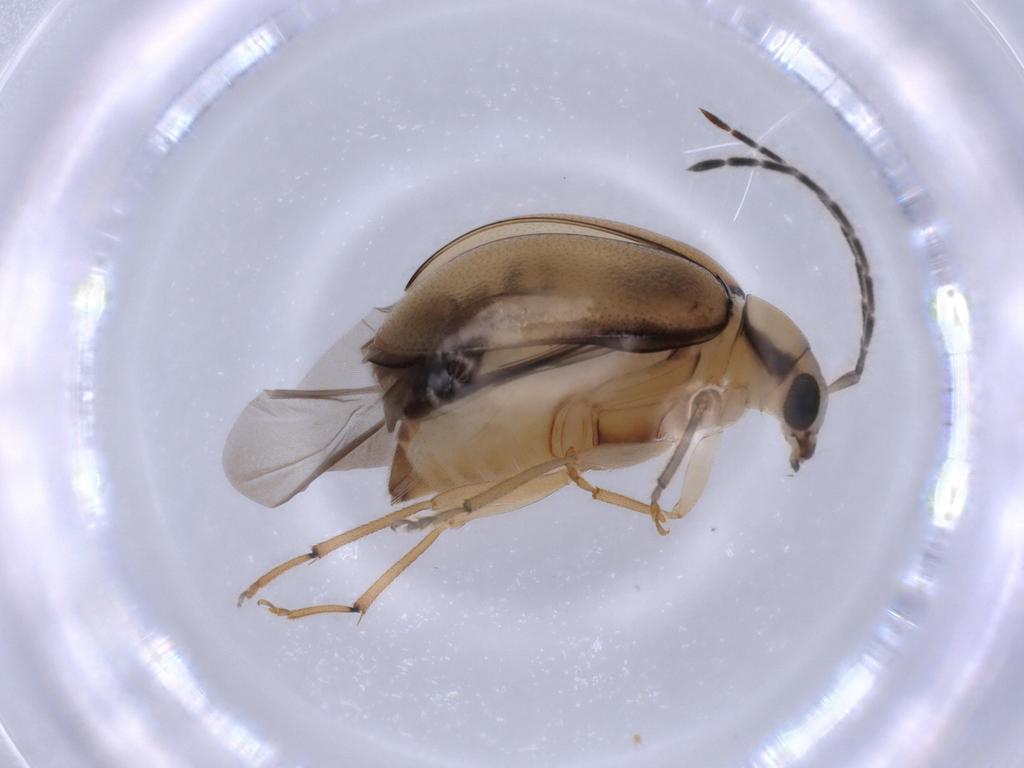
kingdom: Animalia
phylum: Arthropoda
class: Insecta
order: Coleoptera
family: Chrysomelidae
